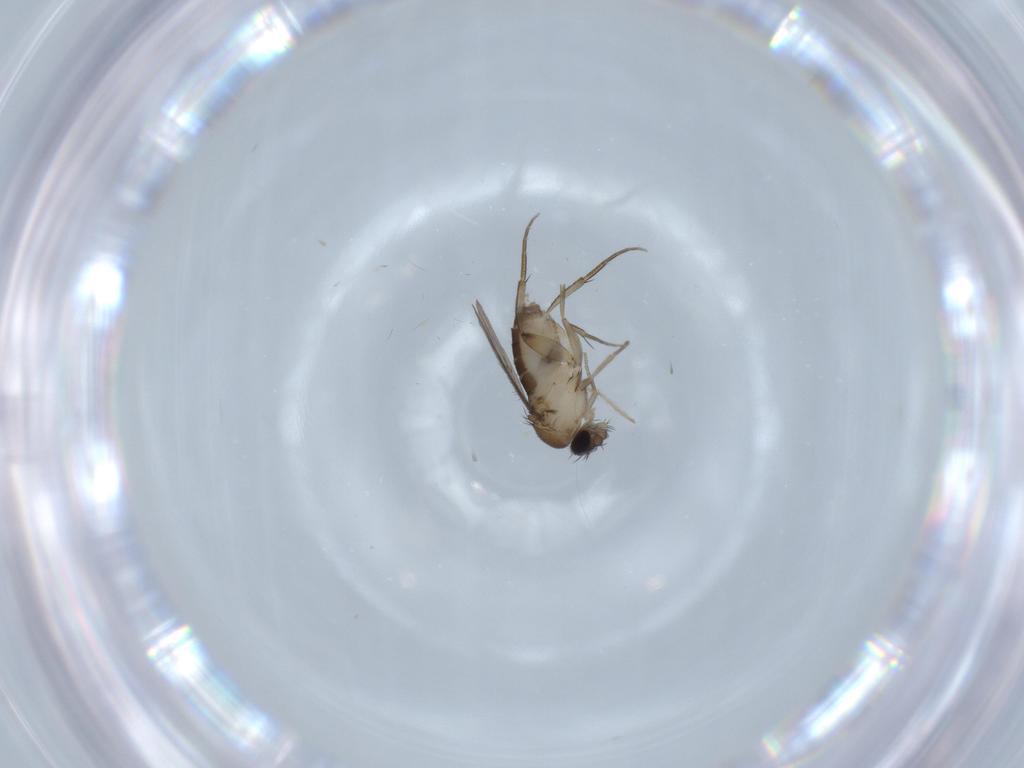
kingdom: Animalia
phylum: Arthropoda
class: Insecta
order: Diptera
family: Phoridae
